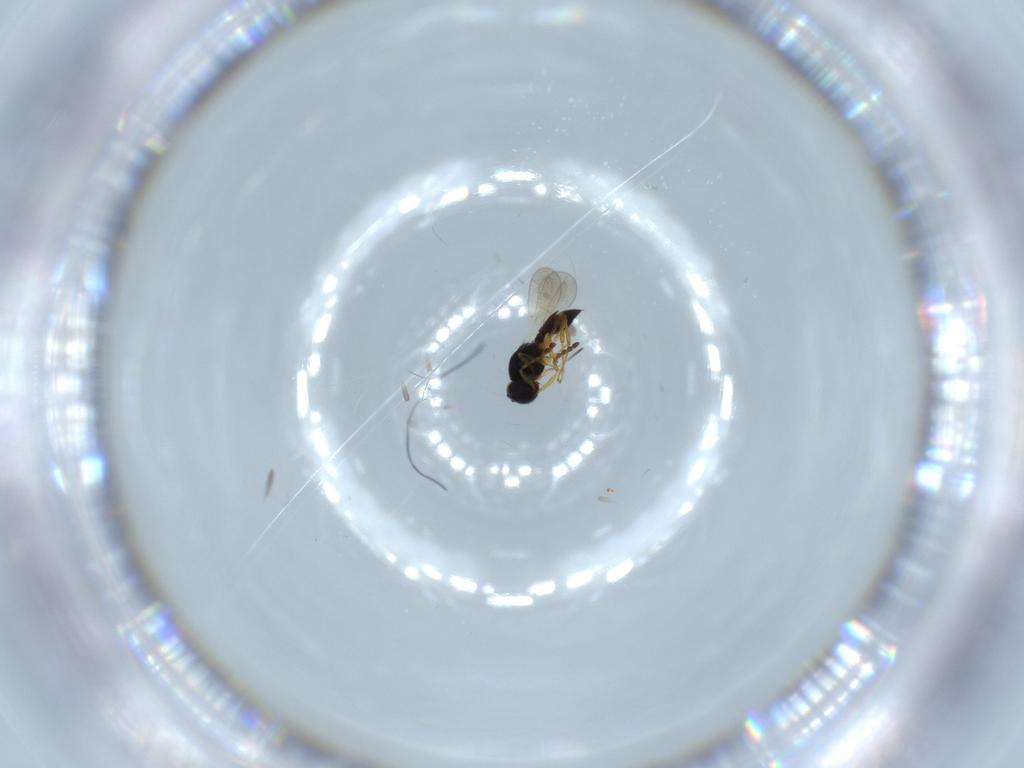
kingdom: Animalia
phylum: Arthropoda
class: Insecta
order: Hymenoptera
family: Platygastridae
